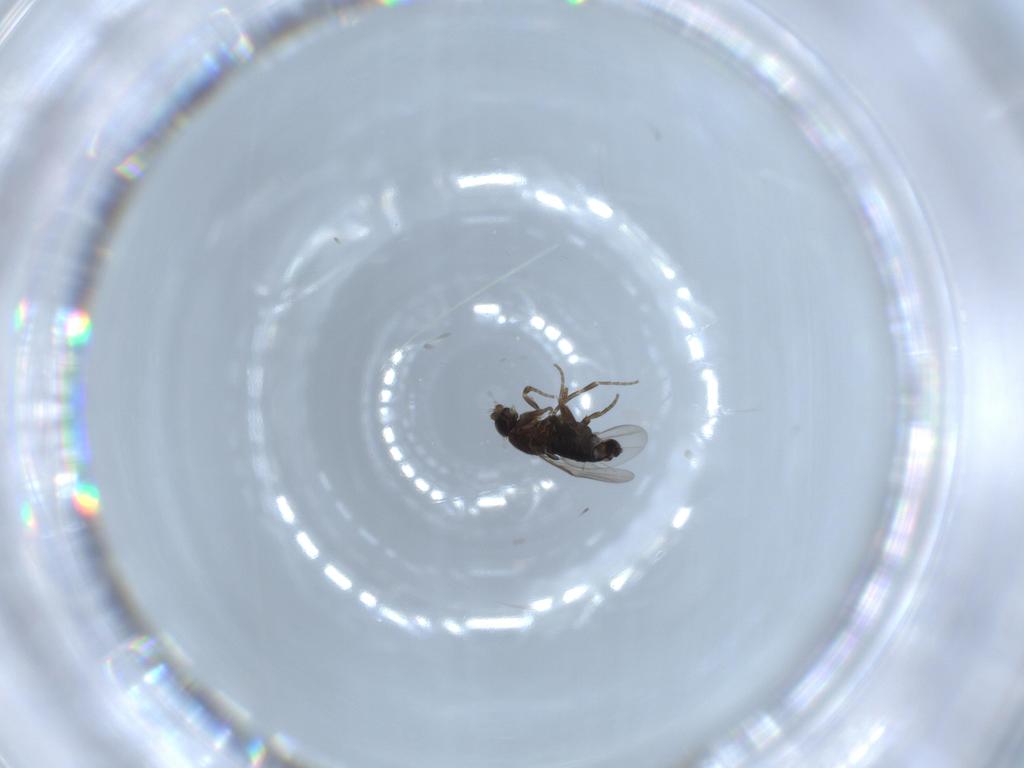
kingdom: Animalia
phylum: Arthropoda
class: Insecta
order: Diptera
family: Phoridae
